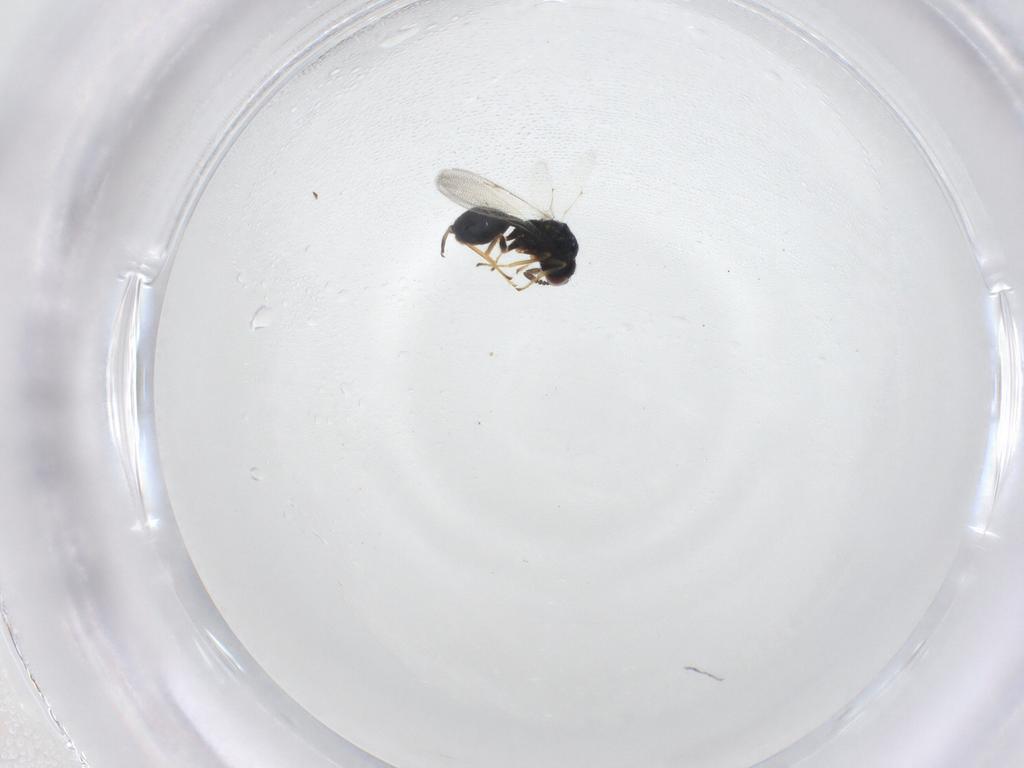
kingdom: Animalia
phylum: Arthropoda
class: Insecta
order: Hymenoptera
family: Chalcidoidea_incertae_sedis
